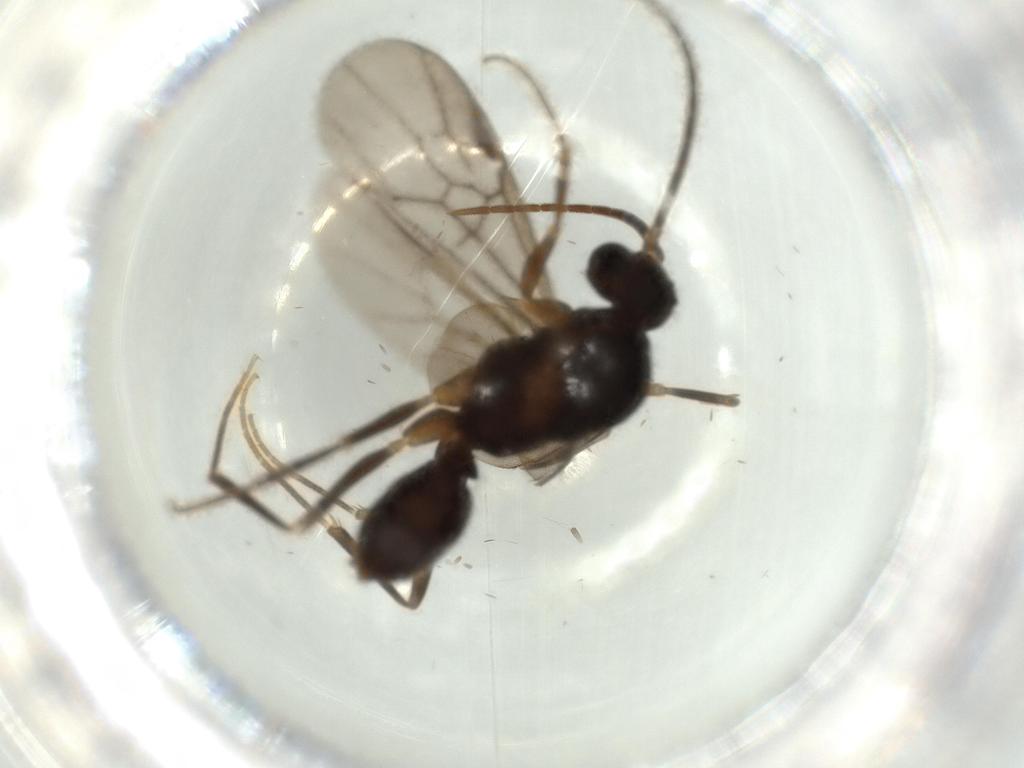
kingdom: Animalia
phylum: Arthropoda
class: Insecta
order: Hymenoptera
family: Formicidae
